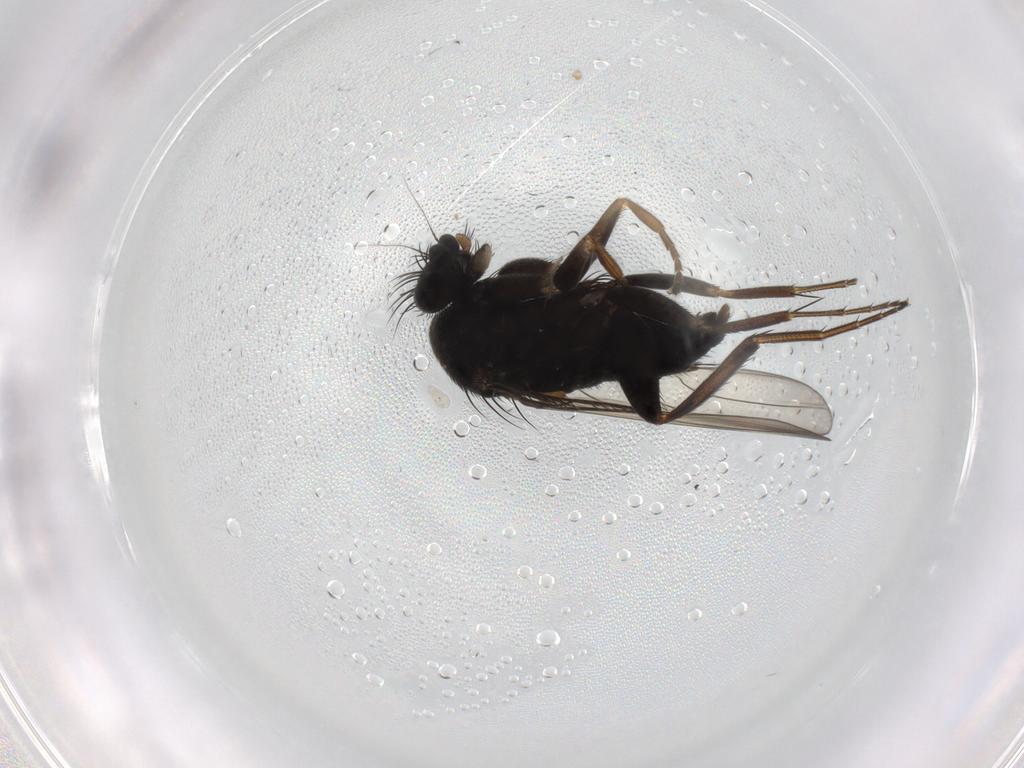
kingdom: Animalia
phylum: Arthropoda
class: Insecta
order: Diptera
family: Phoridae
